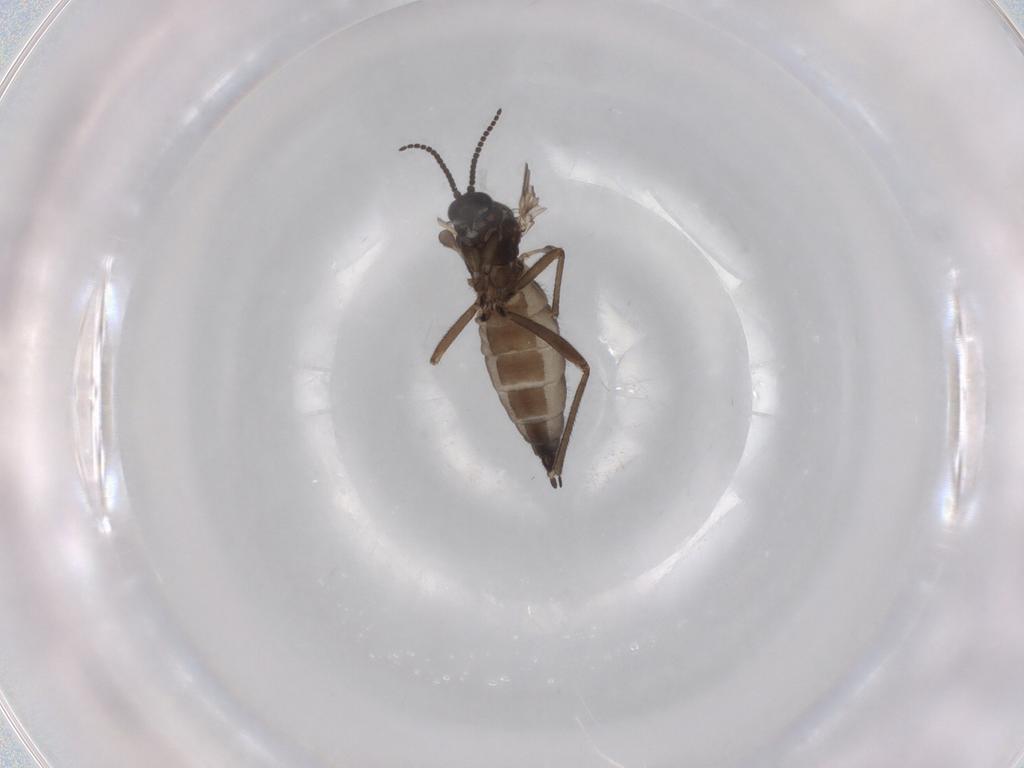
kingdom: Animalia
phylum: Arthropoda
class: Insecta
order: Diptera
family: Sciaridae
